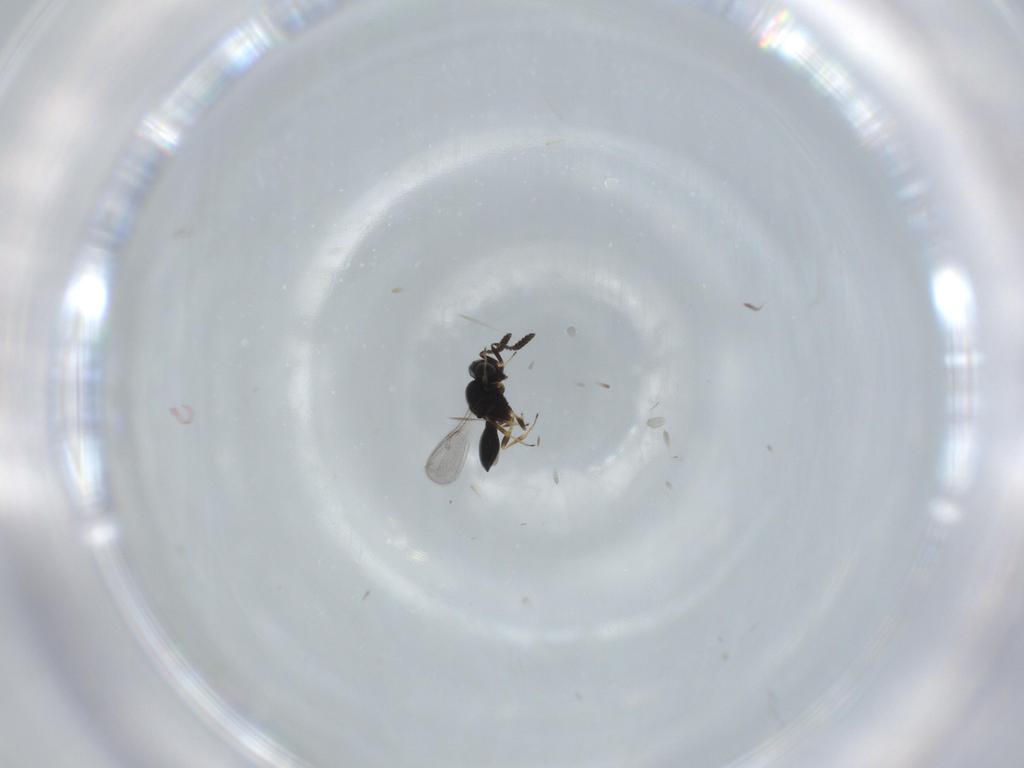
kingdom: Animalia
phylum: Arthropoda
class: Insecta
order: Hymenoptera
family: Scelionidae
